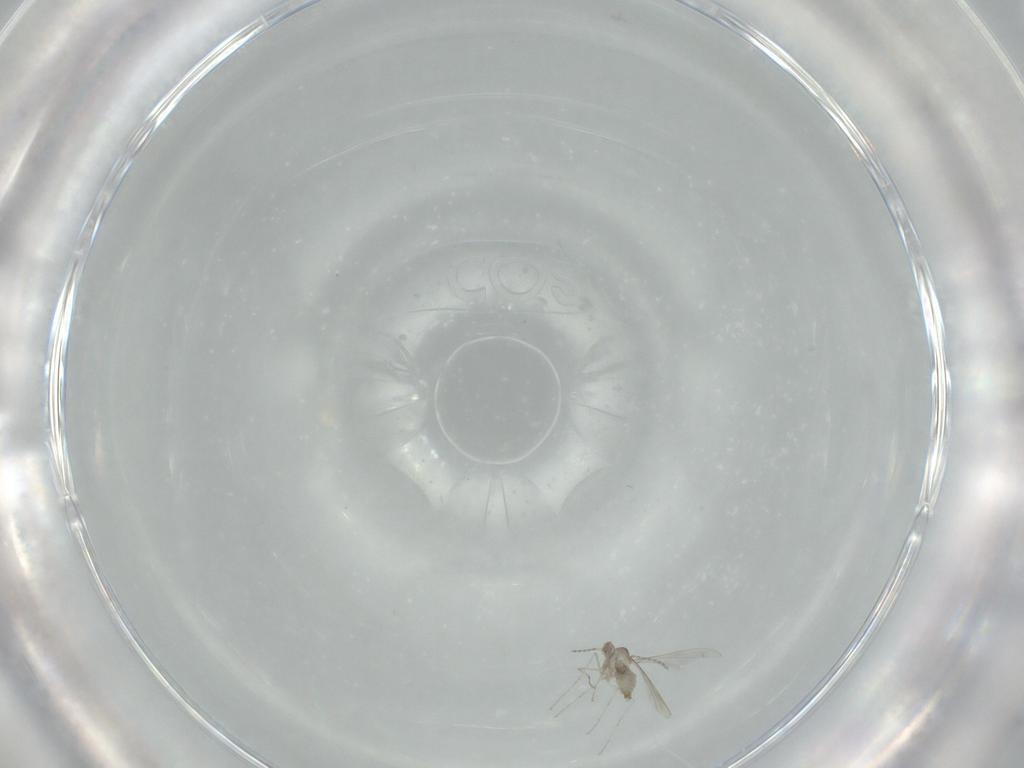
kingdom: Animalia
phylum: Arthropoda
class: Insecta
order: Diptera
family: Cecidomyiidae
